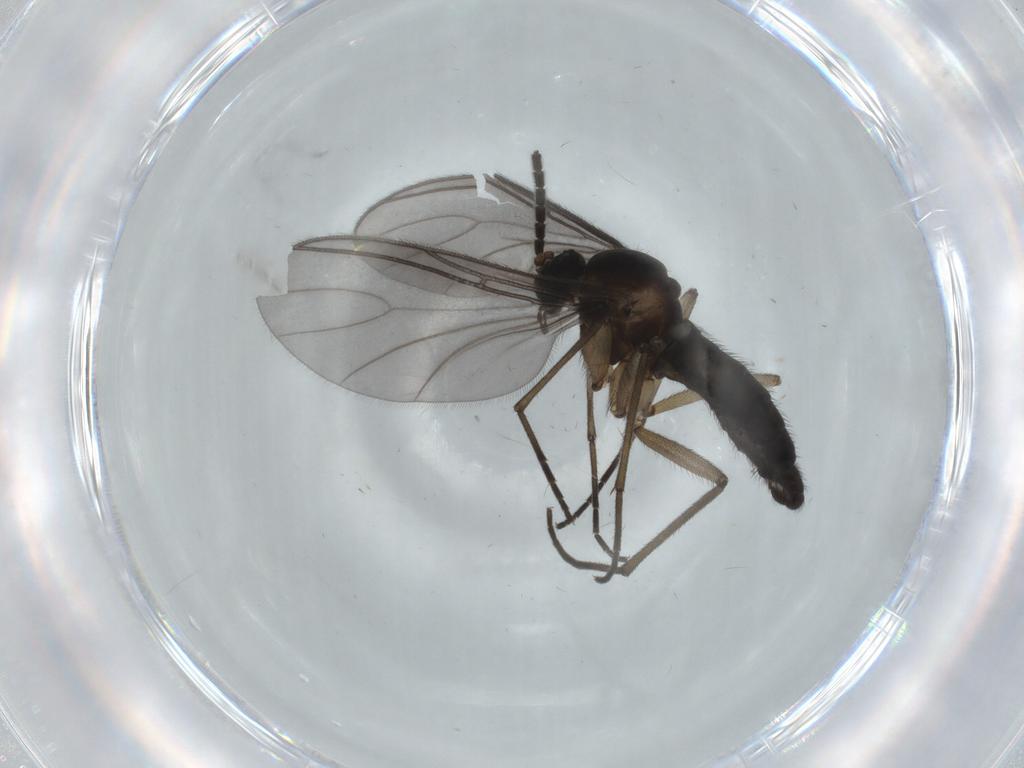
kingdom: Animalia
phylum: Arthropoda
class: Insecta
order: Diptera
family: Sciaridae
